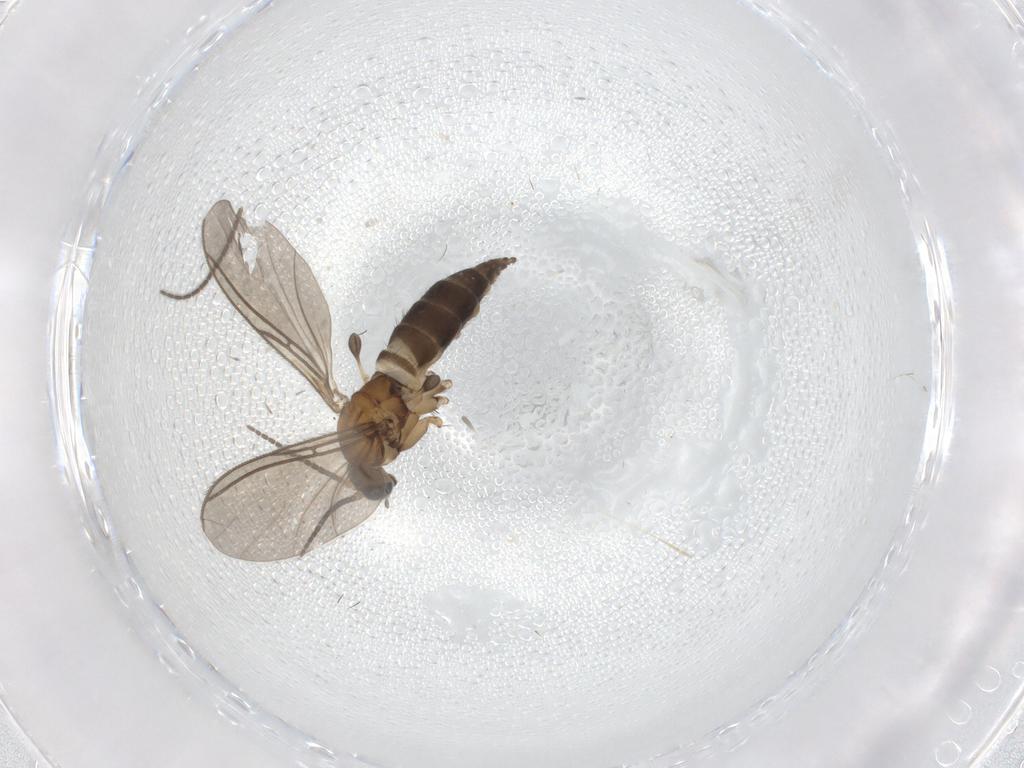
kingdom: Animalia
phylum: Arthropoda
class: Insecta
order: Diptera
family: Sciaridae
